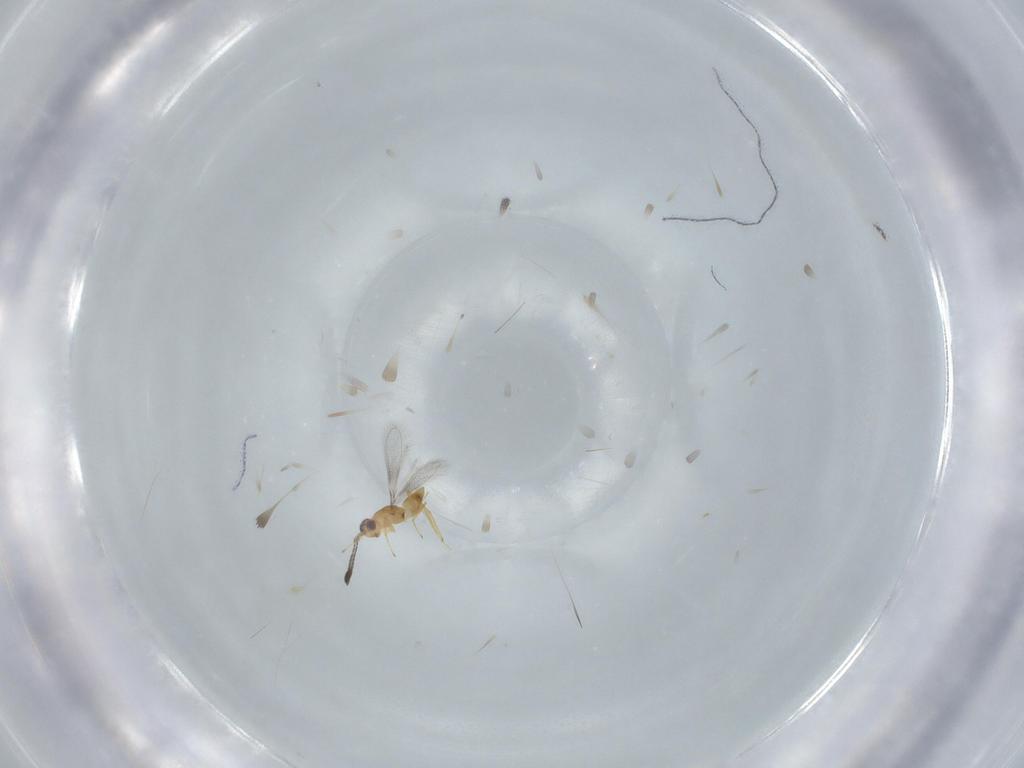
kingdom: Animalia
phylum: Arthropoda
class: Insecta
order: Hymenoptera
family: Mymaridae
